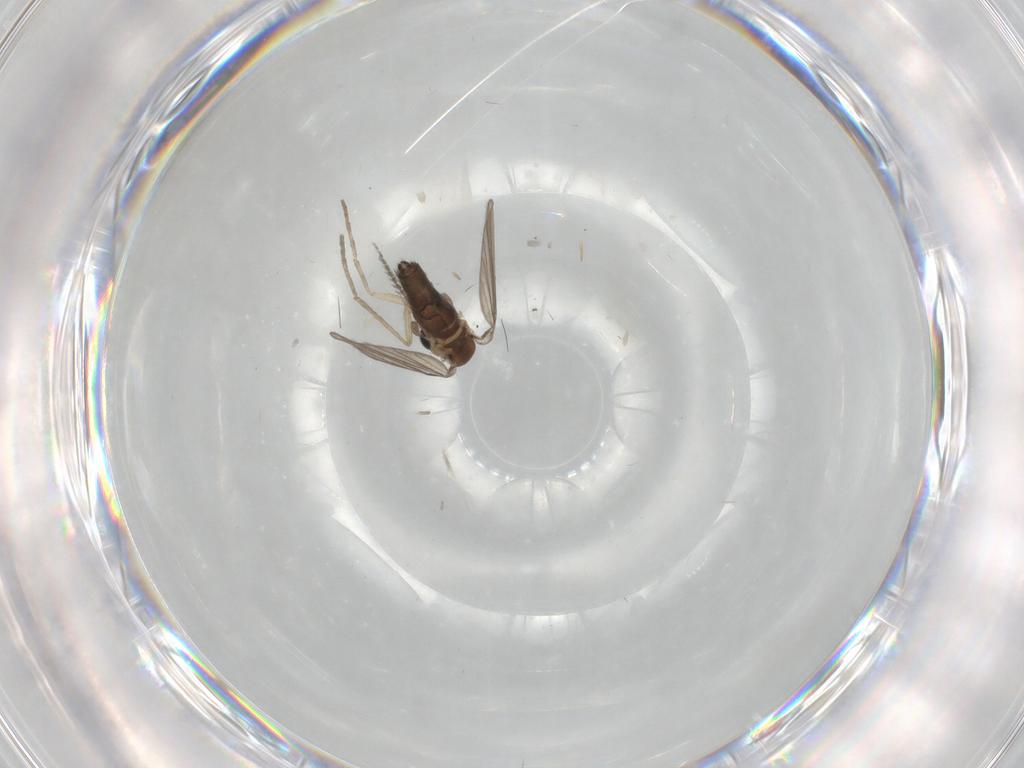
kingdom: Animalia
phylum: Arthropoda
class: Insecta
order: Diptera
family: Psychodidae
